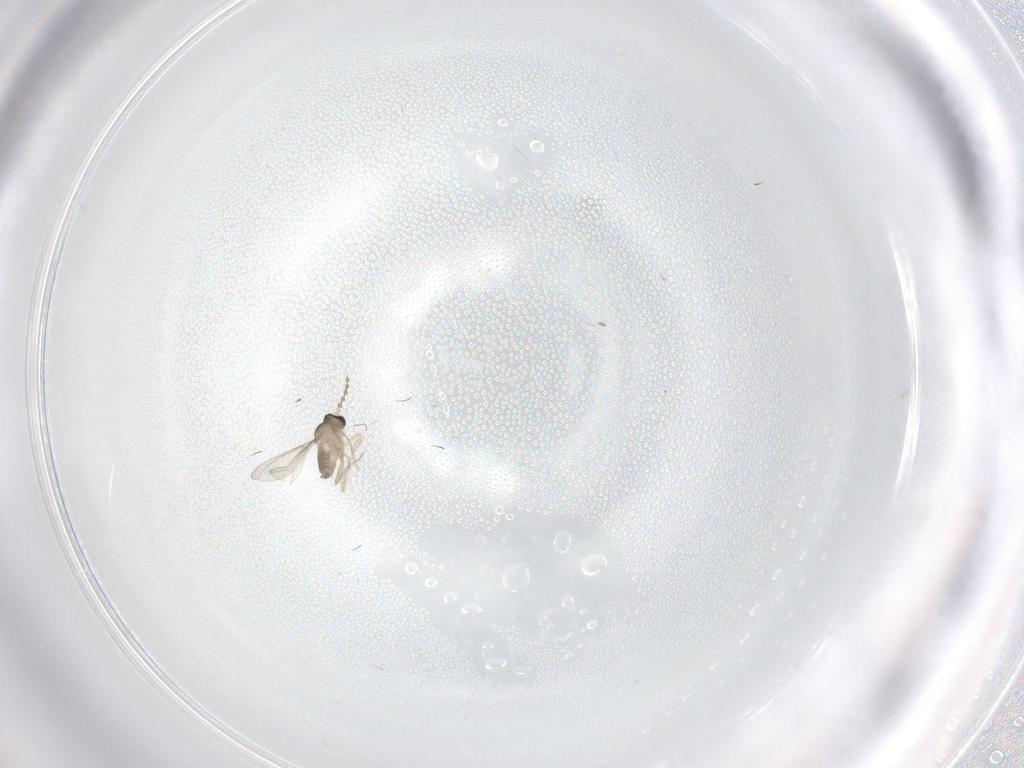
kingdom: Animalia
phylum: Arthropoda
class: Insecta
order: Diptera
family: Cecidomyiidae
